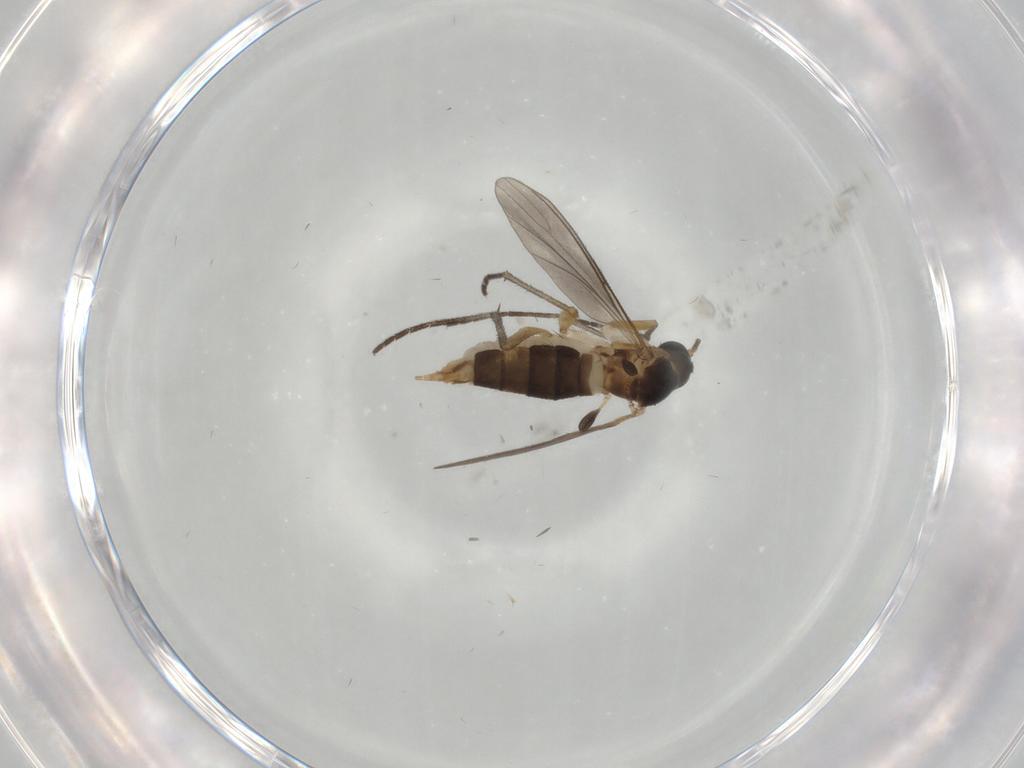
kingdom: Animalia
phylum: Arthropoda
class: Insecta
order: Diptera
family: Sciaridae
